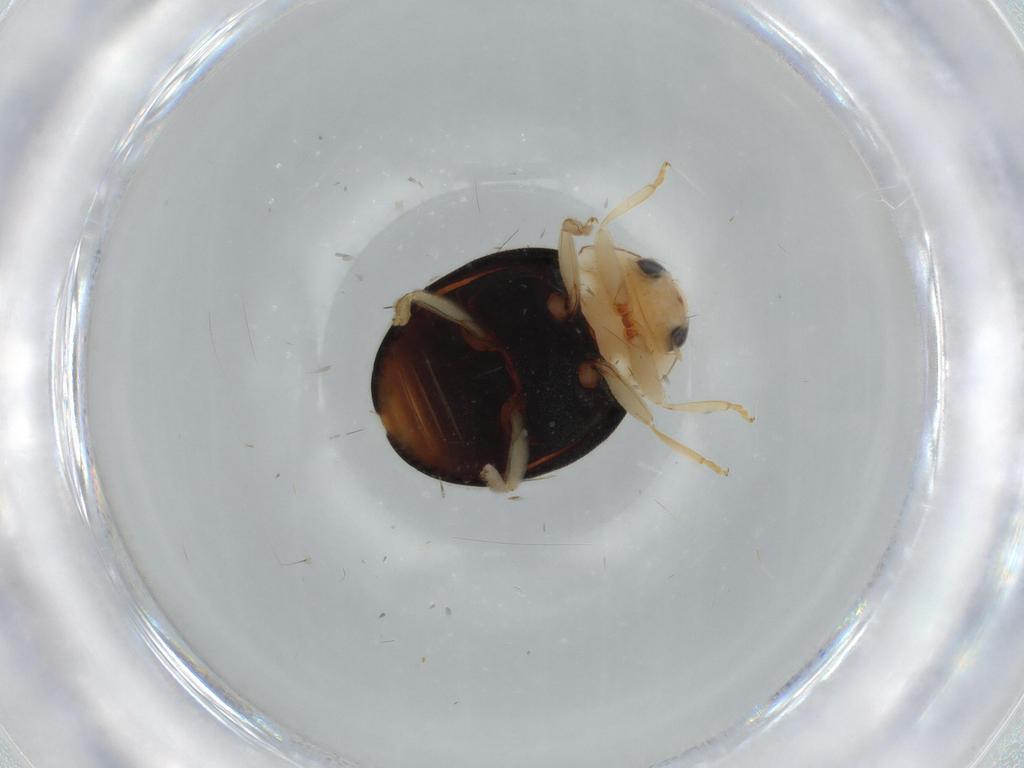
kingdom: Animalia
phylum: Arthropoda
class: Insecta
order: Coleoptera
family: Coccinellidae
